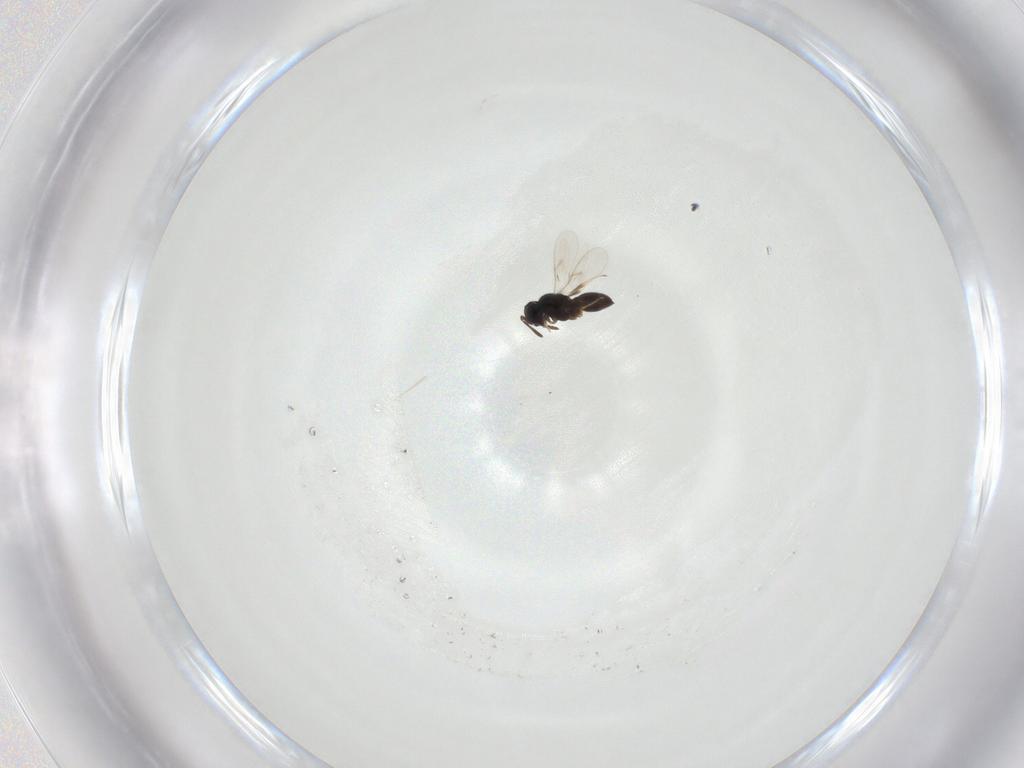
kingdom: Animalia
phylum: Arthropoda
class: Insecta
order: Hymenoptera
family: Scelionidae
